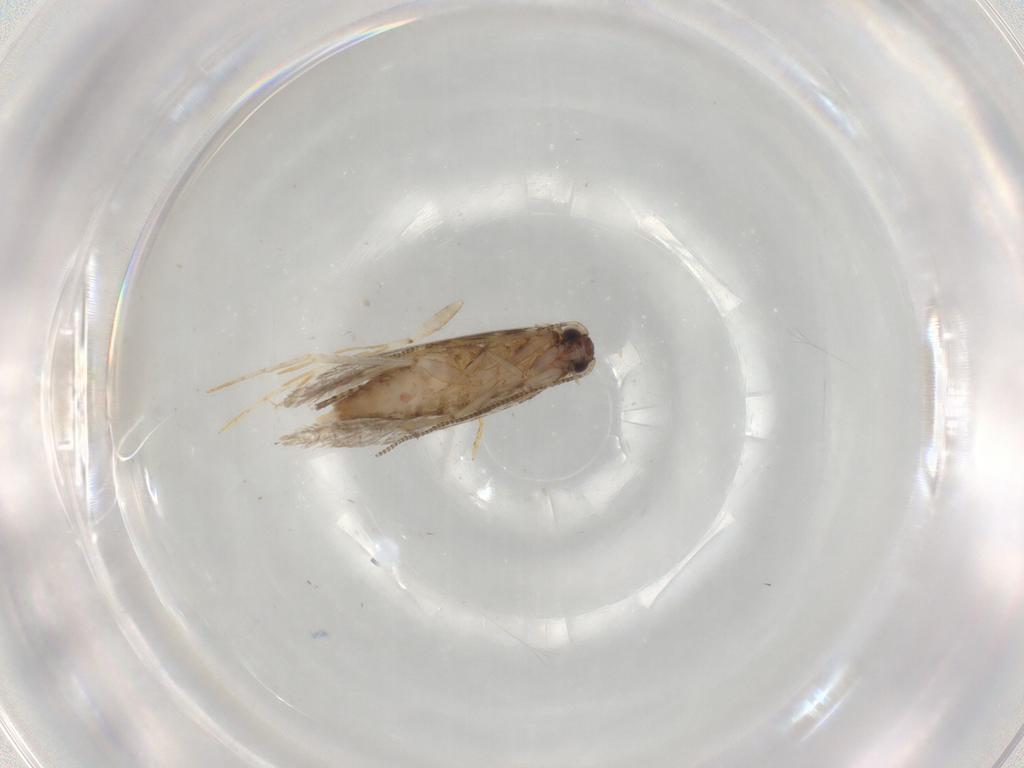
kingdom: Animalia
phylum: Arthropoda
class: Insecta
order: Lepidoptera
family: Tineidae
